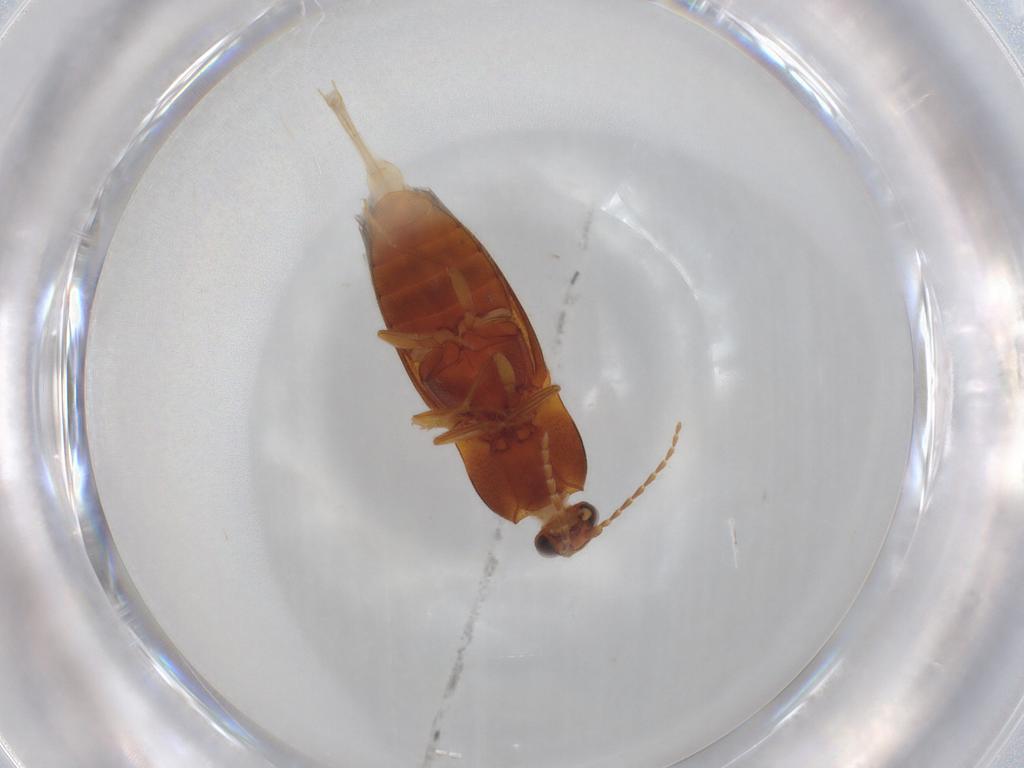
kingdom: Animalia
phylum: Arthropoda
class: Insecta
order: Coleoptera
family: Elateridae
